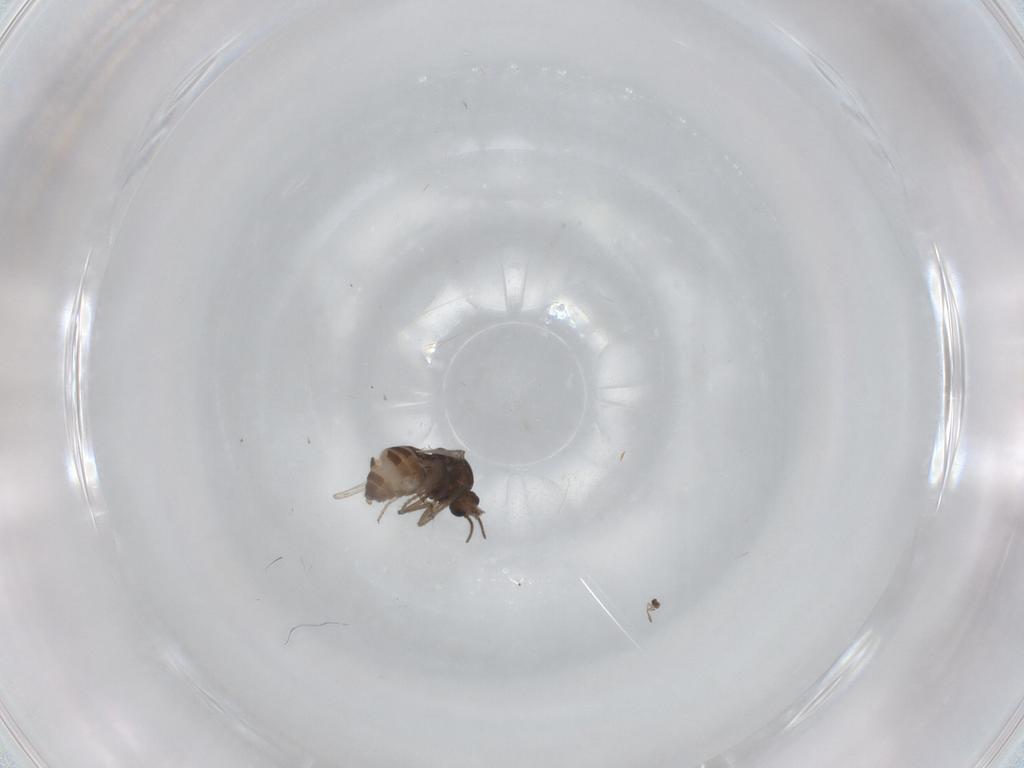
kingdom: Animalia
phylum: Arthropoda
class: Insecta
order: Diptera
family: Ceratopogonidae
